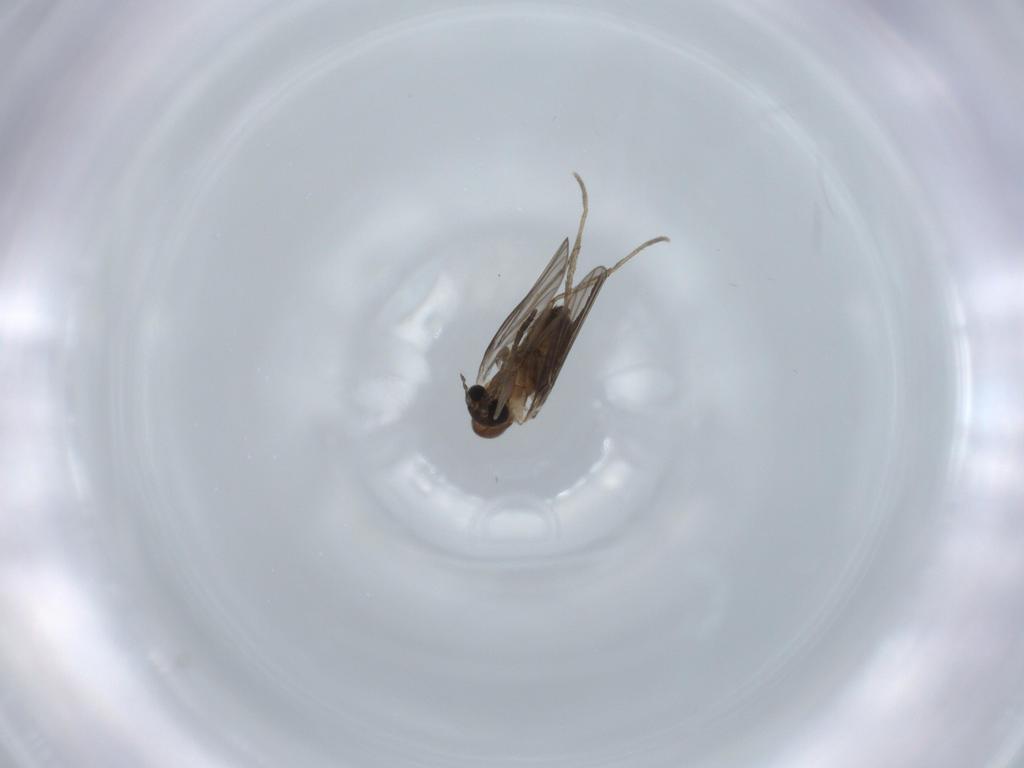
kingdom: Animalia
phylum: Arthropoda
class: Insecta
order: Diptera
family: Psychodidae
